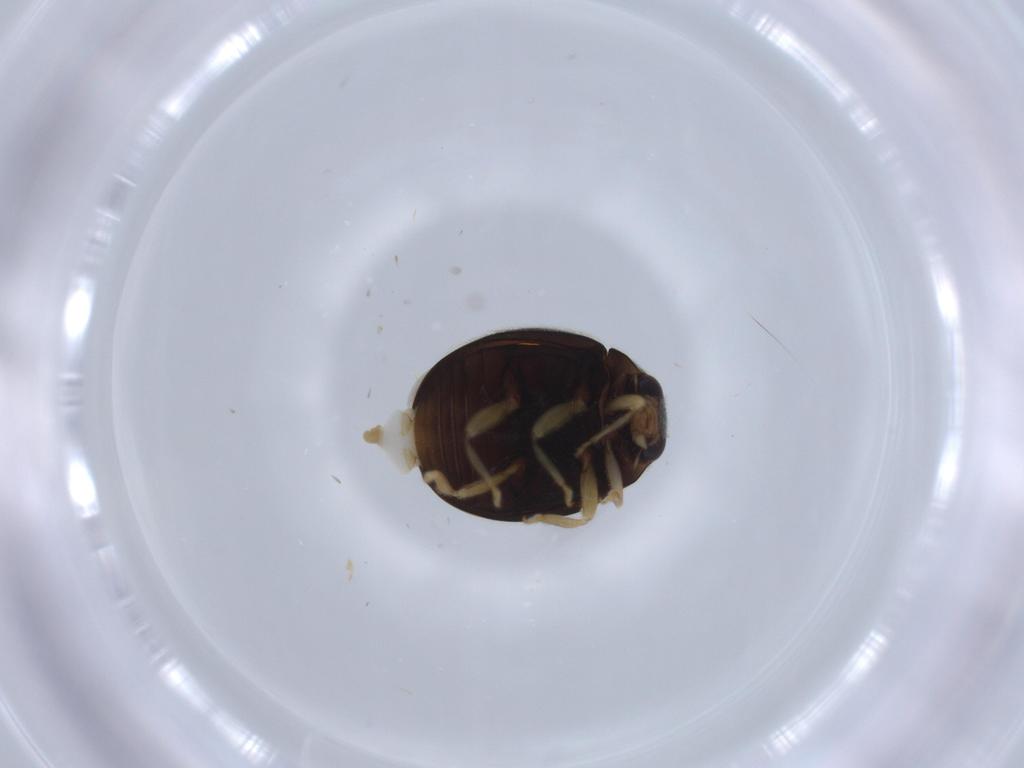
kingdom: Animalia
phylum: Arthropoda
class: Insecta
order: Coleoptera
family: Coccinellidae
